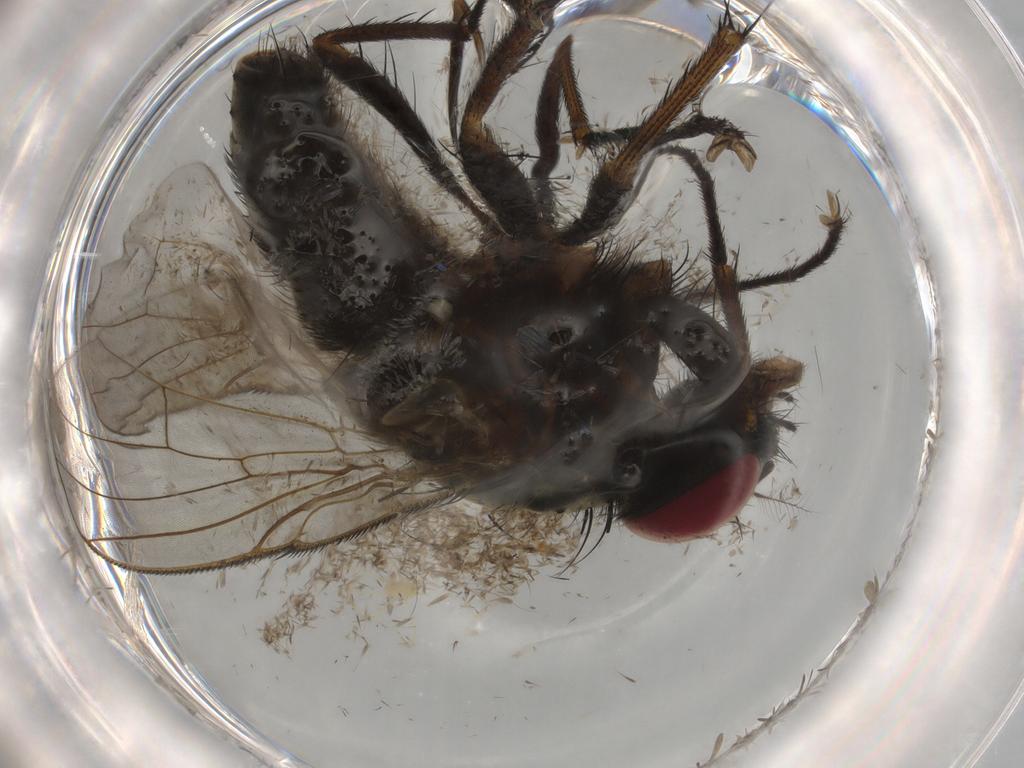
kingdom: Animalia
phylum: Arthropoda
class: Insecta
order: Diptera
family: Muscidae
